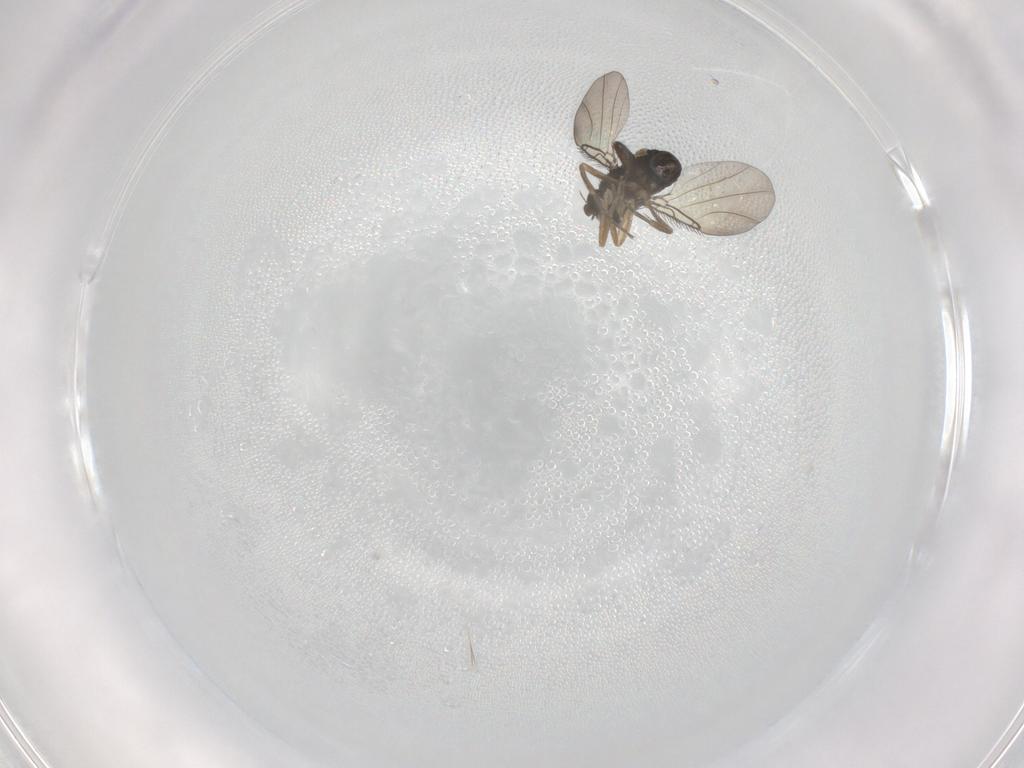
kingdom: Animalia
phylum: Arthropoda
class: Insecta
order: Diptera
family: Phoridae
